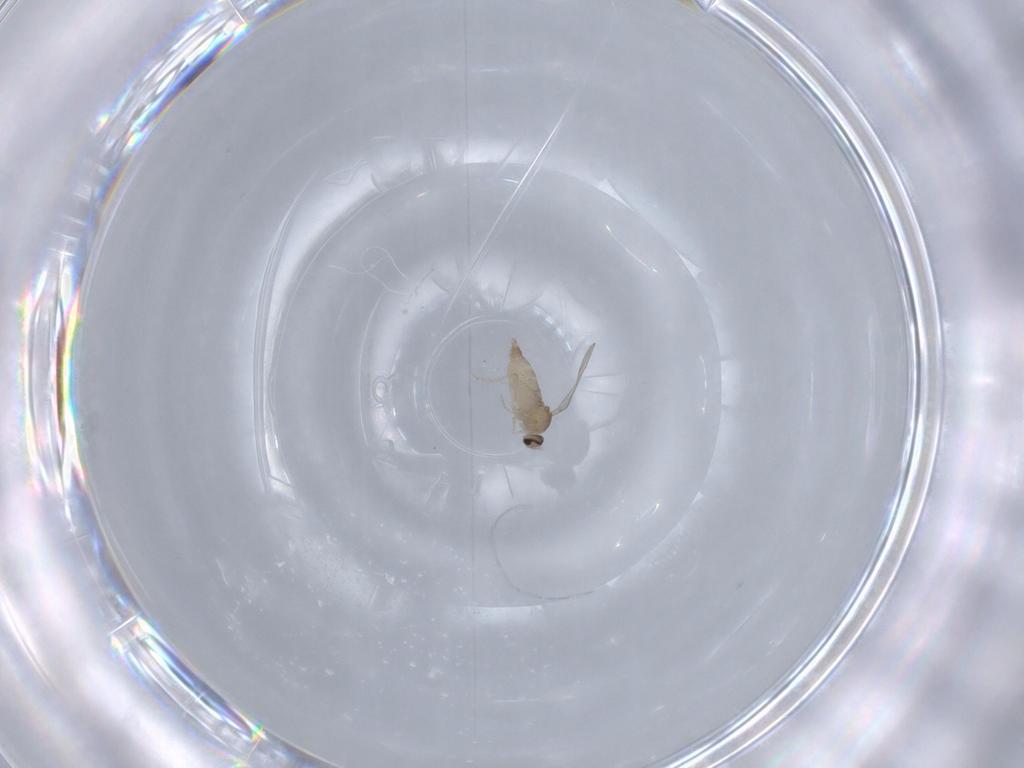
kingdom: Animalia
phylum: Arthropoda
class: Insecta
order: Diptera
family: Cecidomyiidae
